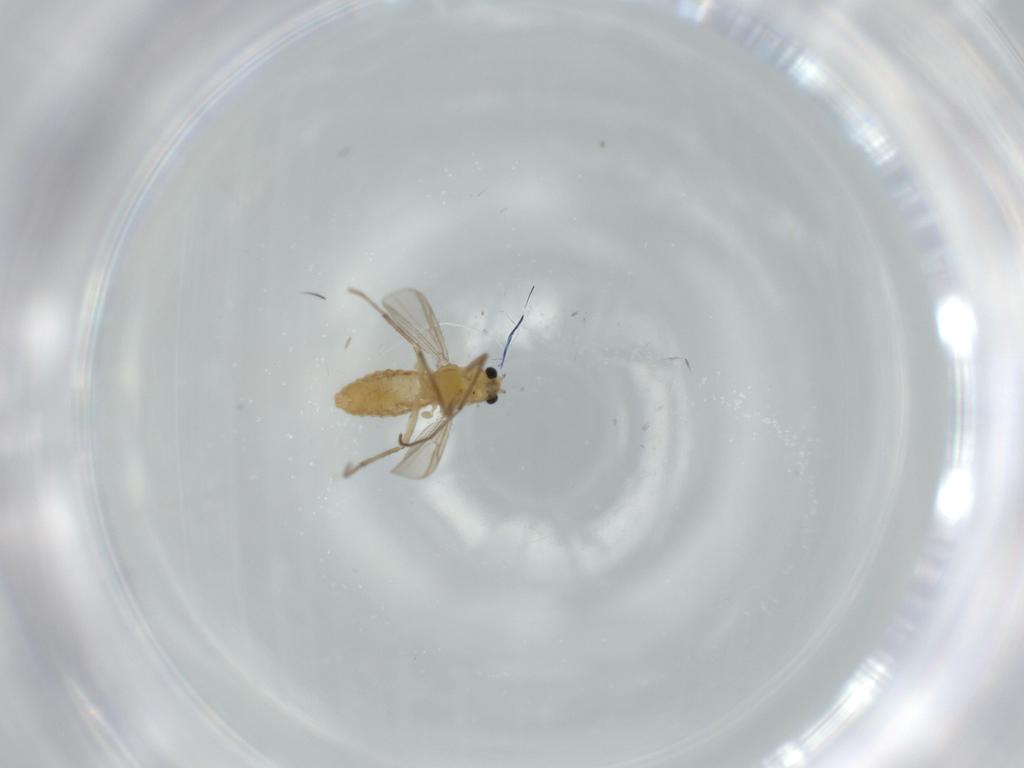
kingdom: Animalia
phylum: Arthropoda
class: Insecta
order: Diptera
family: Chironomidae
